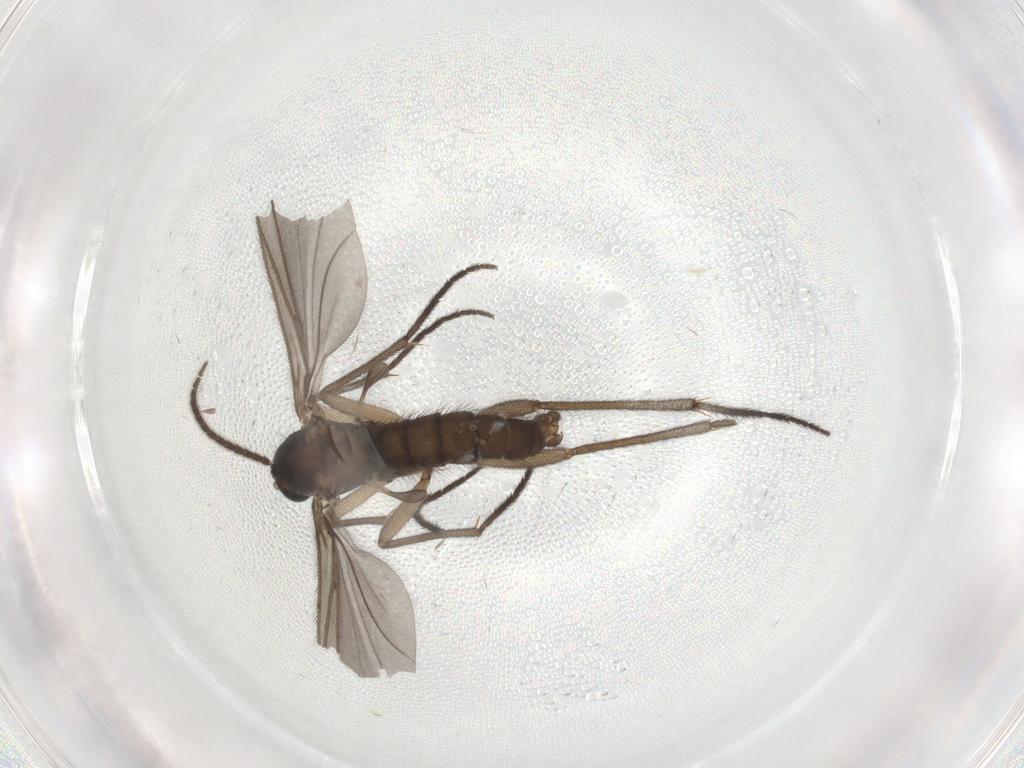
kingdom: Animalia
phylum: Arthropoda
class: Insecta
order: Diptera
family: Sciaridae
